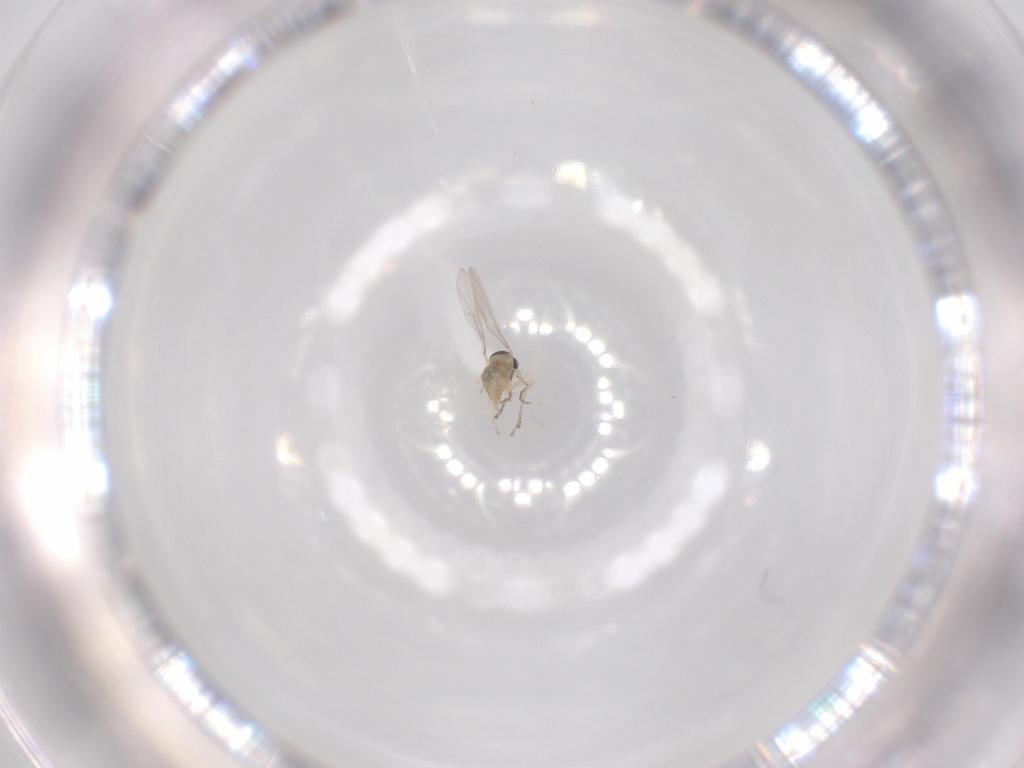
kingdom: Animalia
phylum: Arthropoda
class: Insecta
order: Diptera
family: Cecidomyiidae
